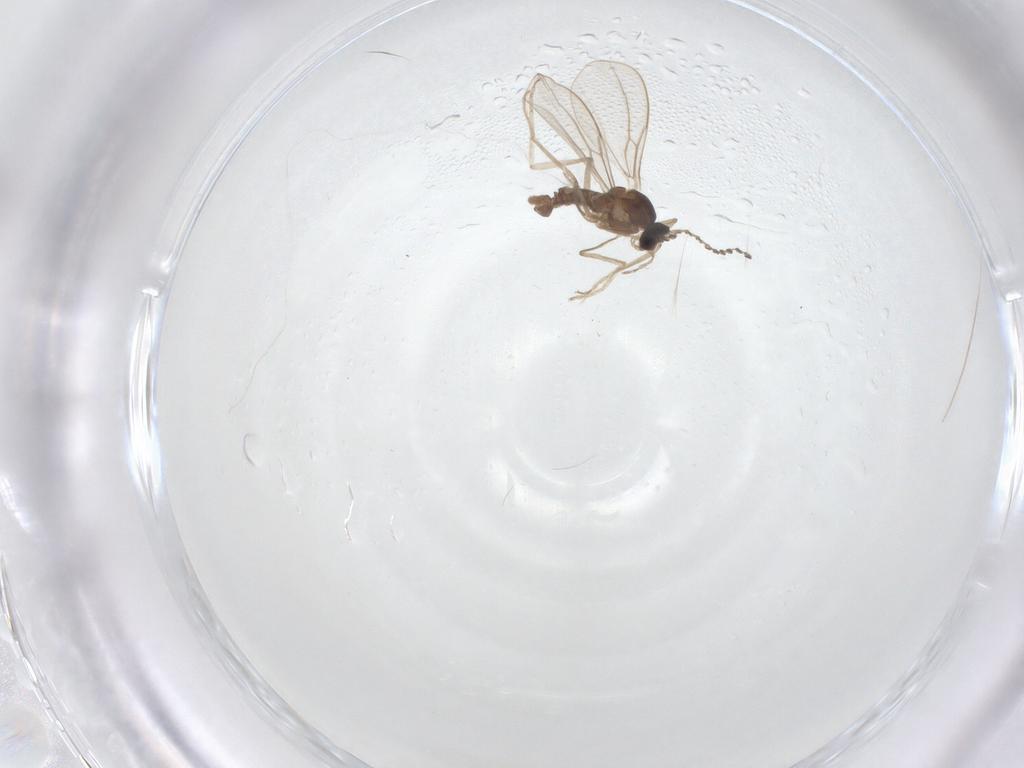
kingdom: Animalia
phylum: Arthropoda
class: Insecta
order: Diptera
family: Cecidomyiidae
